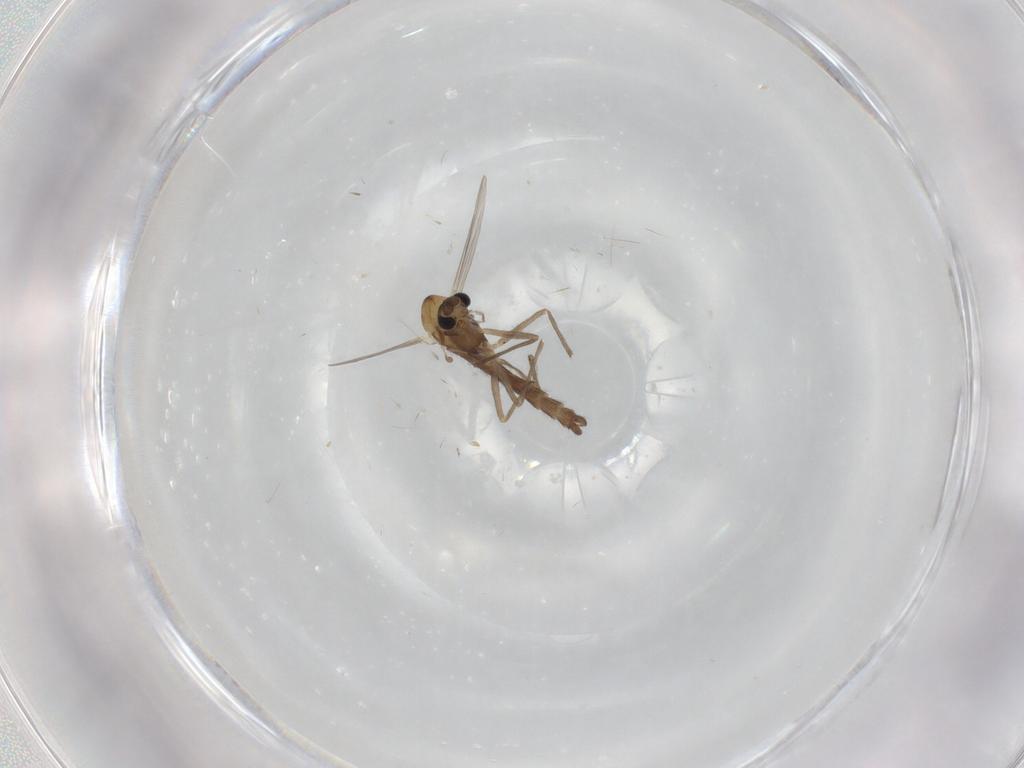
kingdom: Animalia
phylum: Arthropoda
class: Insecta
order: Diptera
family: Chironomidae
